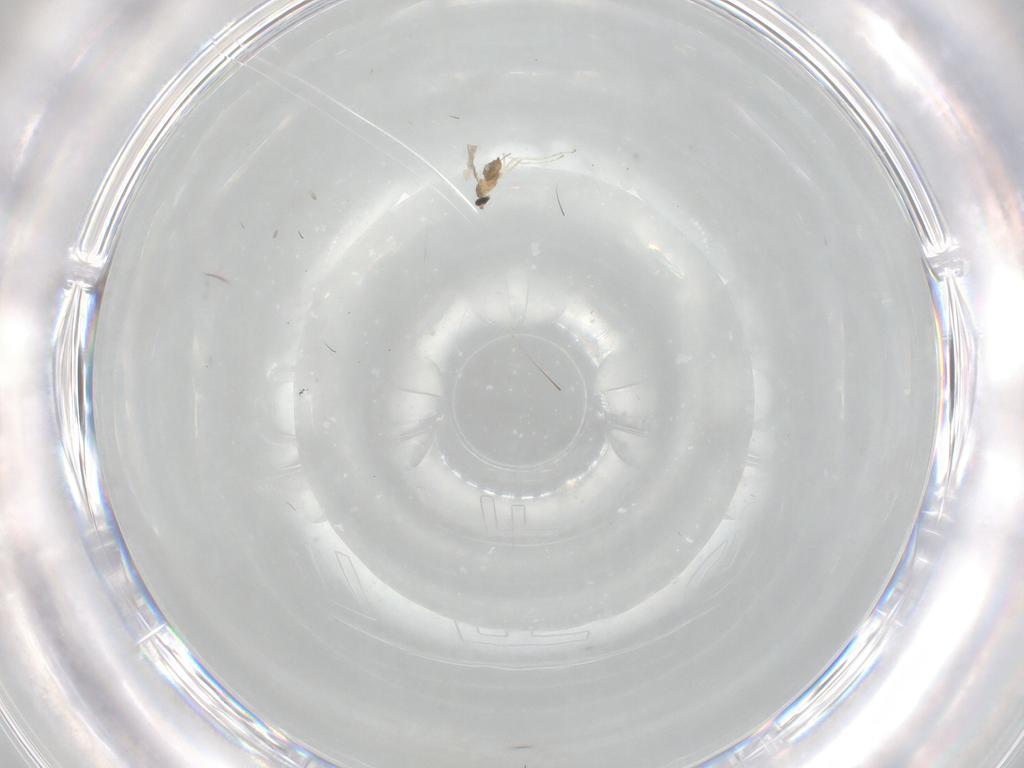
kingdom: Animalia
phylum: Arthropoda
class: Insecta
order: Diptera
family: Cecidomyiidae
